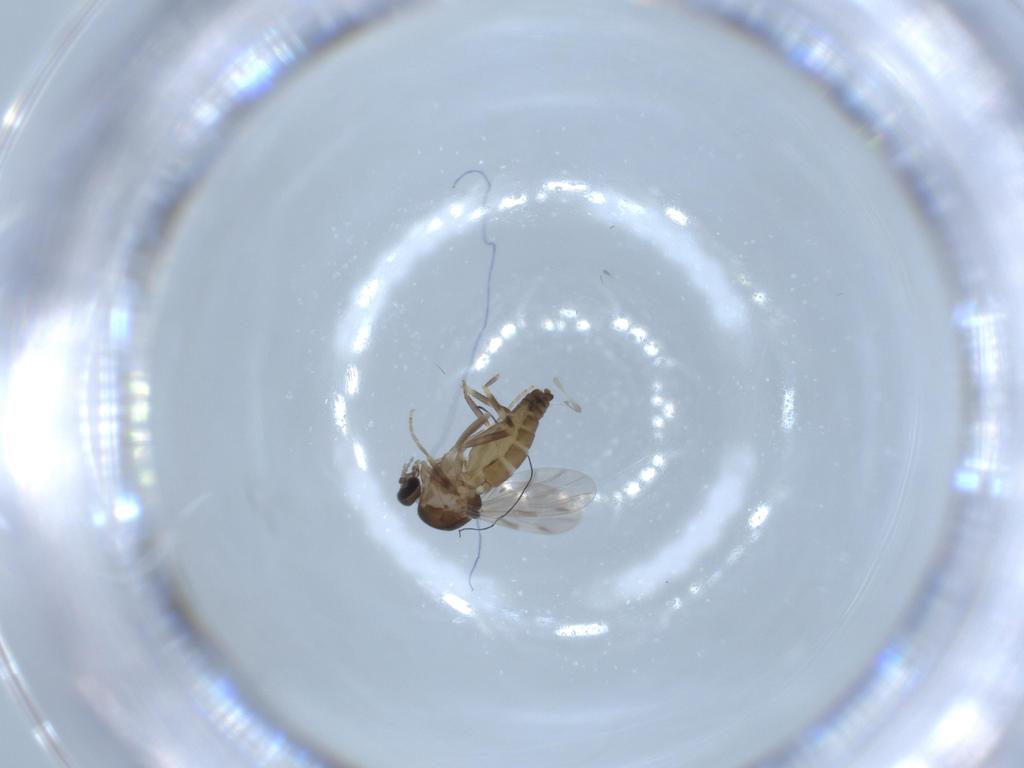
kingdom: Animalia
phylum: Arthropoda
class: Insecta
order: Diptera
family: Ceratopogonidae
